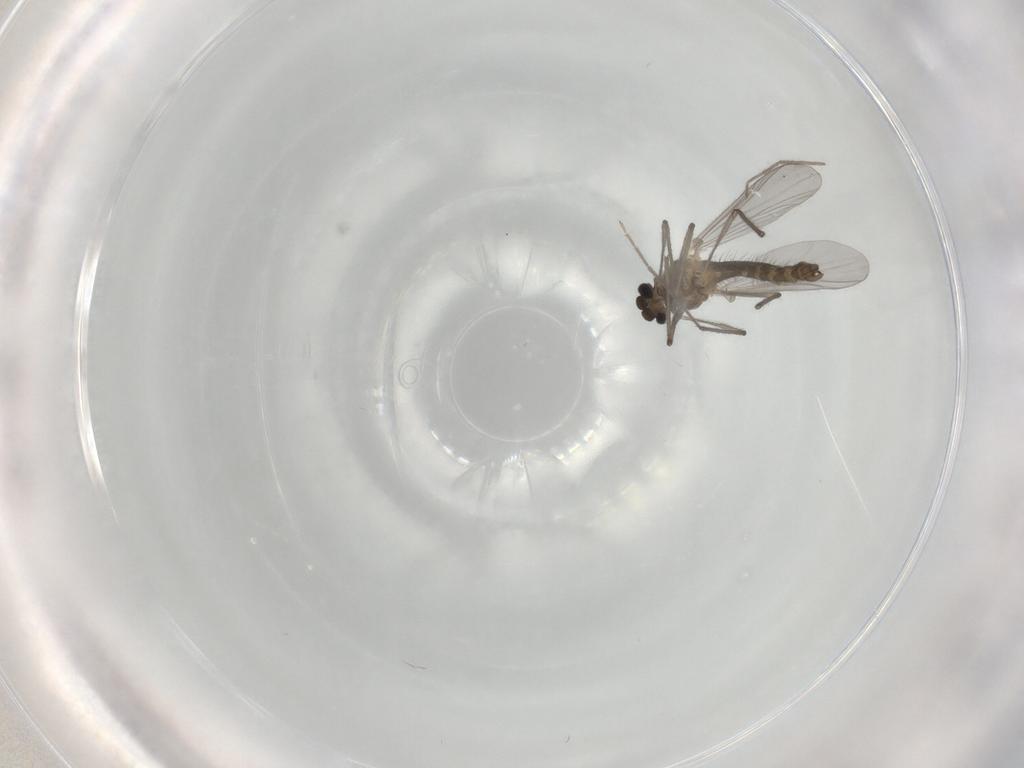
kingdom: Animalia
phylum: Arthropoda
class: Insecta
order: Diptera
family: Chironomidae
